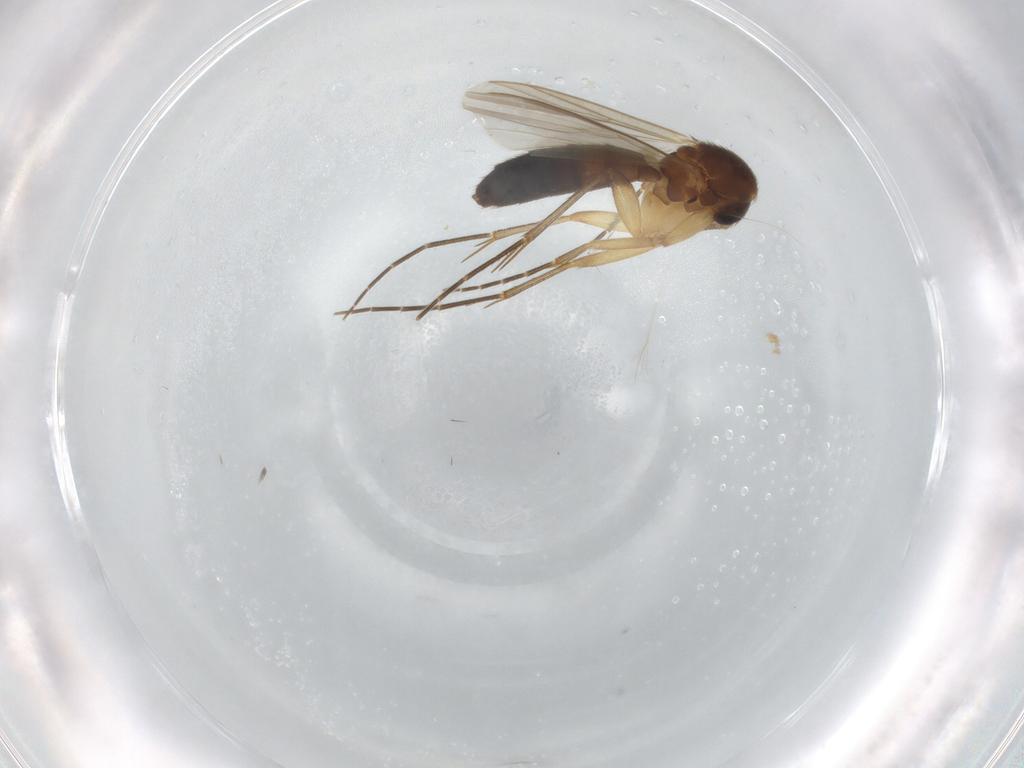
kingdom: Animalia
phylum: Arthropoda
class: Insecta
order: Diptera
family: Mycetophilidae
